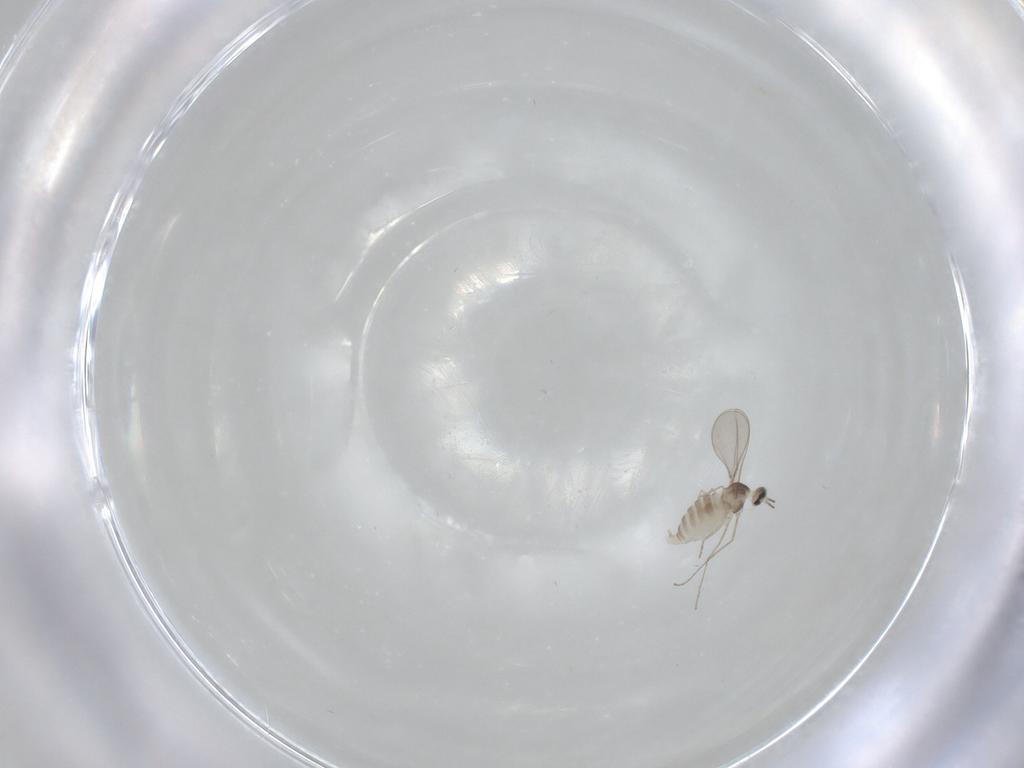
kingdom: Animalia
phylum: Arthropoda
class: Insecta
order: Diptera
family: Cecidomyiidae
